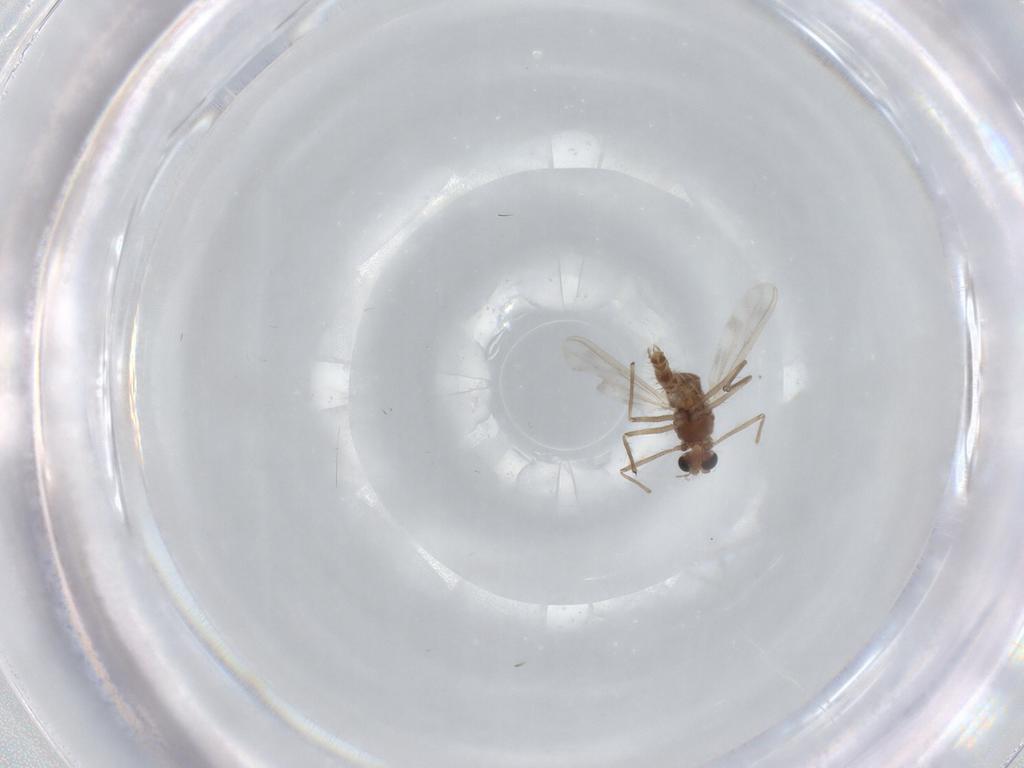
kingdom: Animalia
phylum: Arthropoda
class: Insecta
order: Diptera
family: Chironomidae
